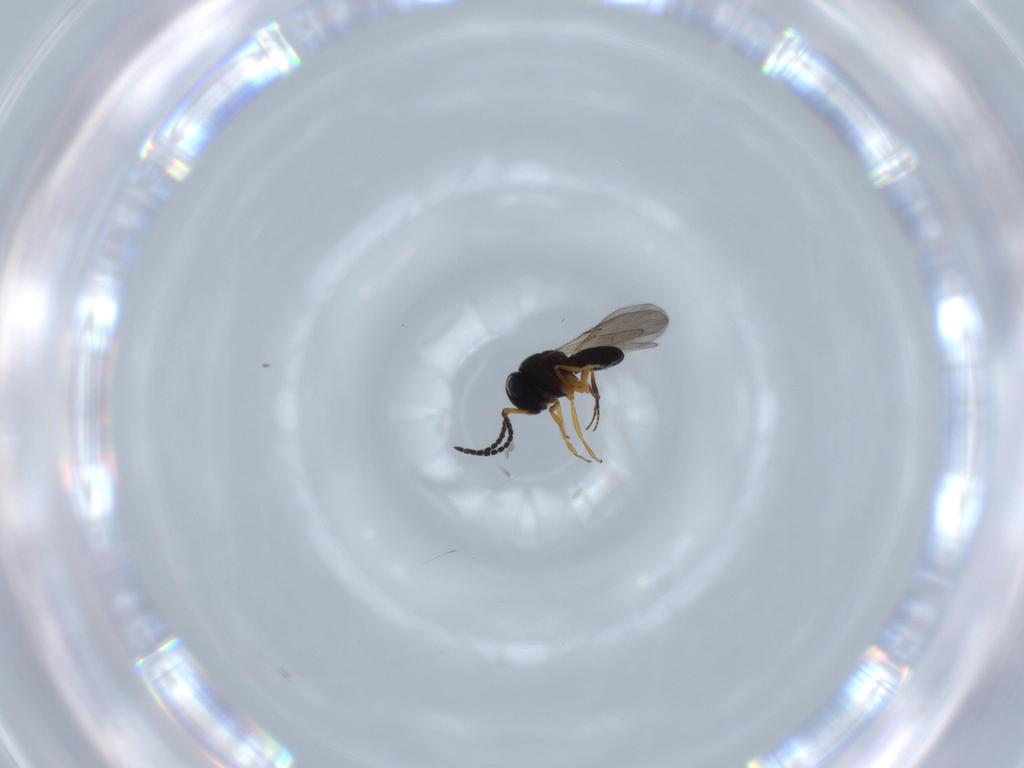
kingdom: Animalia
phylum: Arthropoda
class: Insecta
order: Hymenoptera
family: Scelionidae
